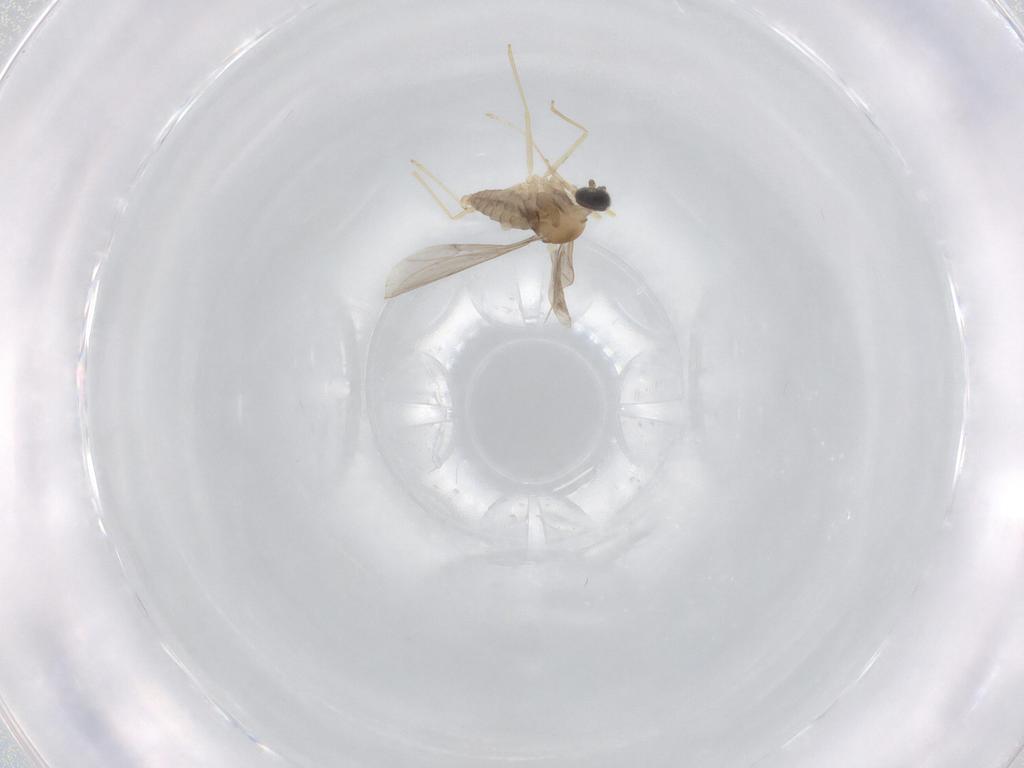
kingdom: Animalia
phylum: Arthropoda
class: Insecta
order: Diptera
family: Cecidomyiidae
